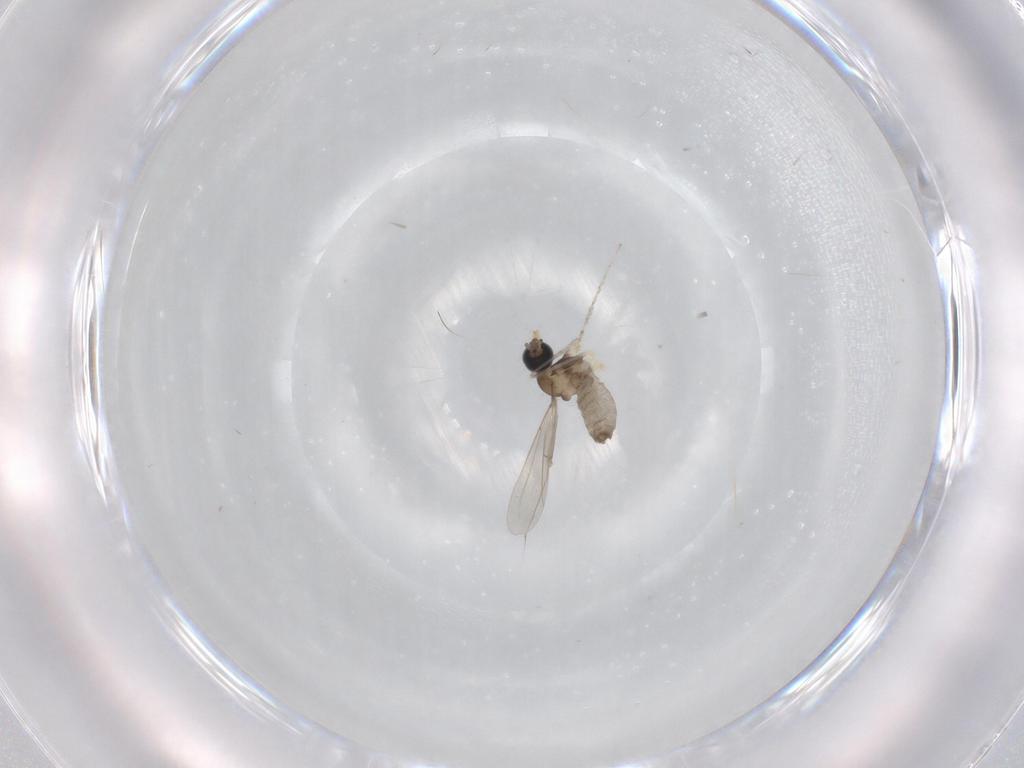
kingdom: Animalia
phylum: Arthropoda
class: Insecta
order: Diptera
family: Cecidomyiidae
